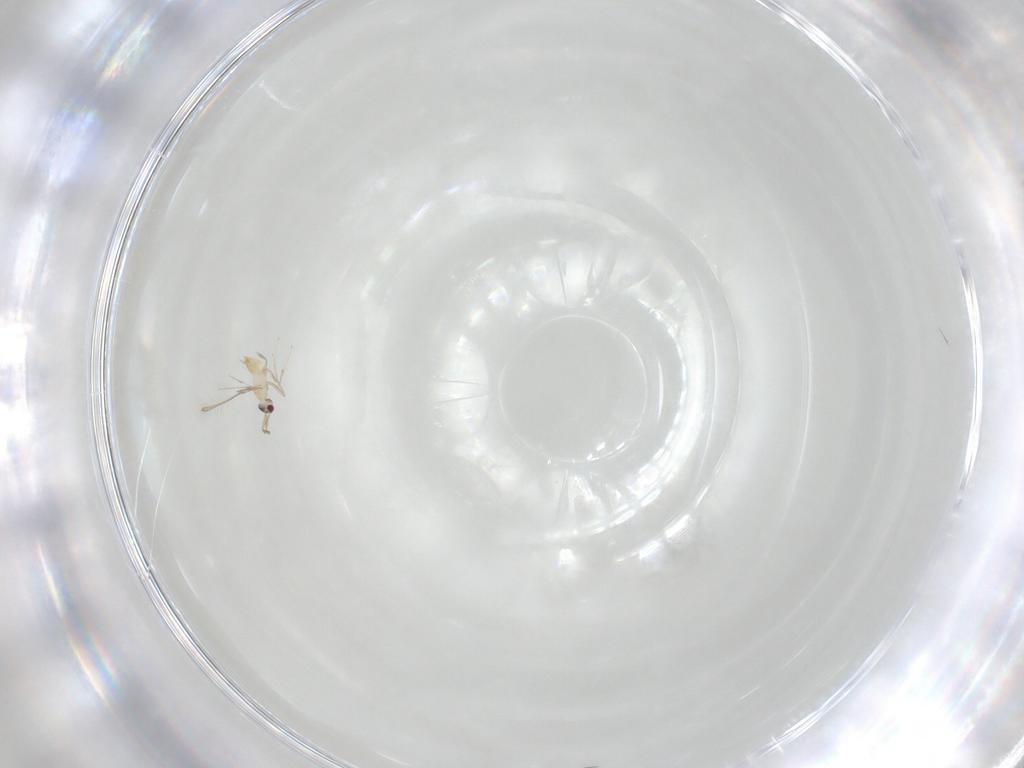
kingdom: Animalia
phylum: Arthropoda
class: Insecta
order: Hymenoptera
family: Mymaridae
